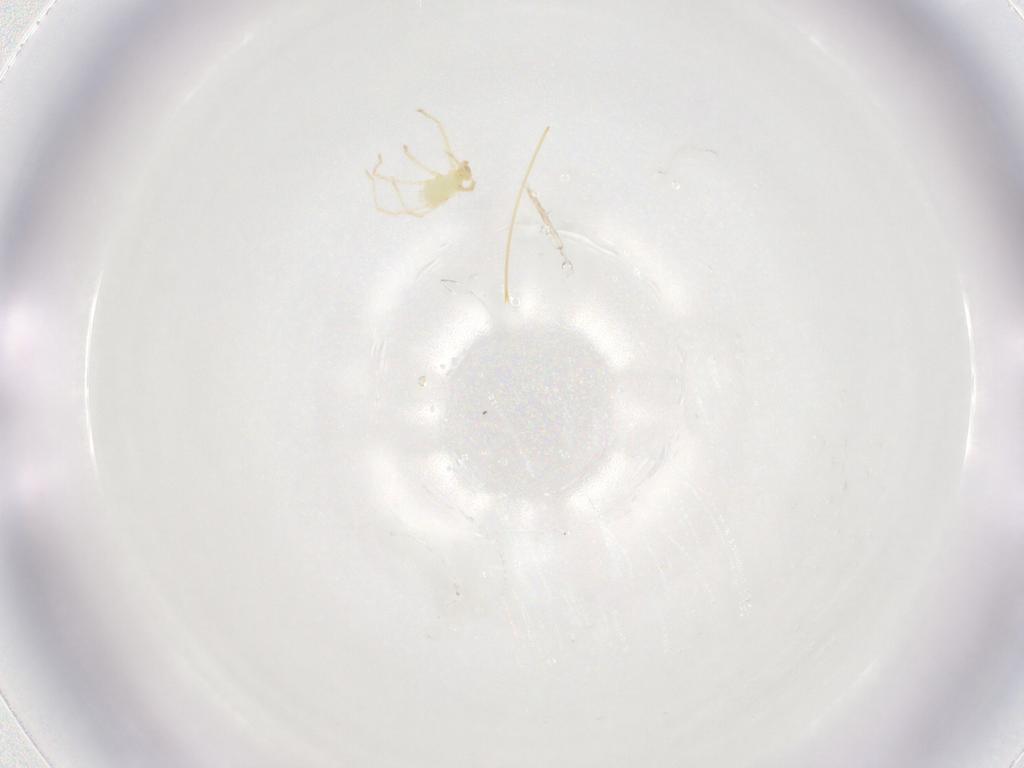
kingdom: Animalia
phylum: Arthropoda
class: Arachnida
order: Trombidiformes
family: Erythraeidae
